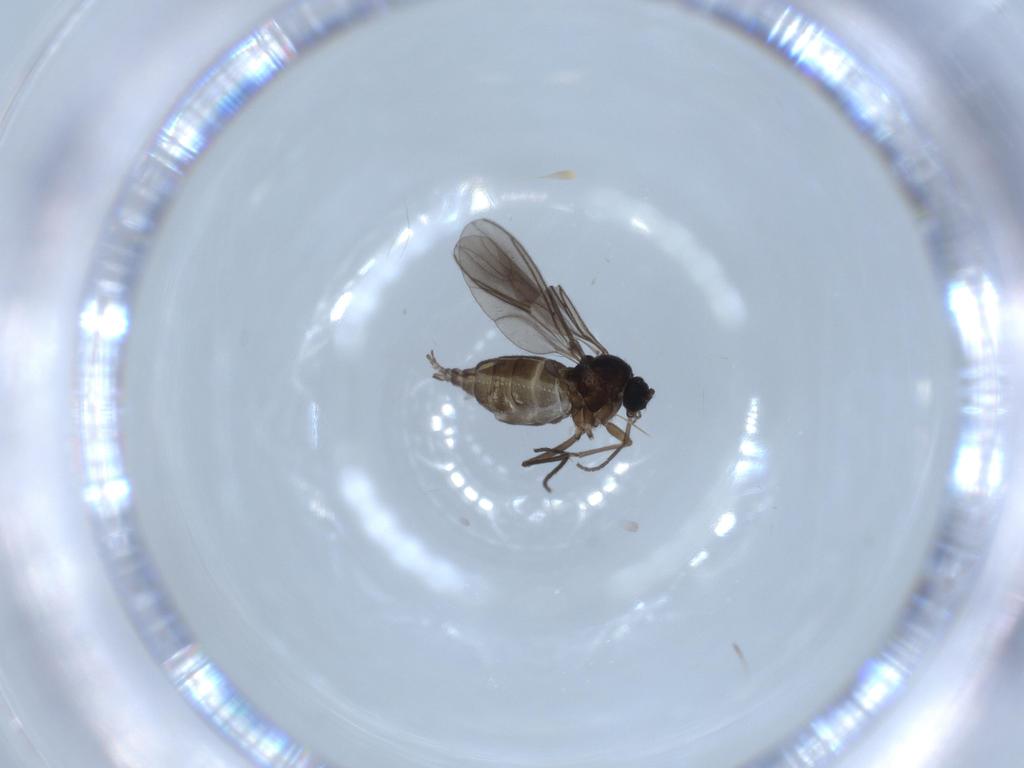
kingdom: Animalia
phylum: Arthropoda
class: Insecta
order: Diptera
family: Sciaridae
